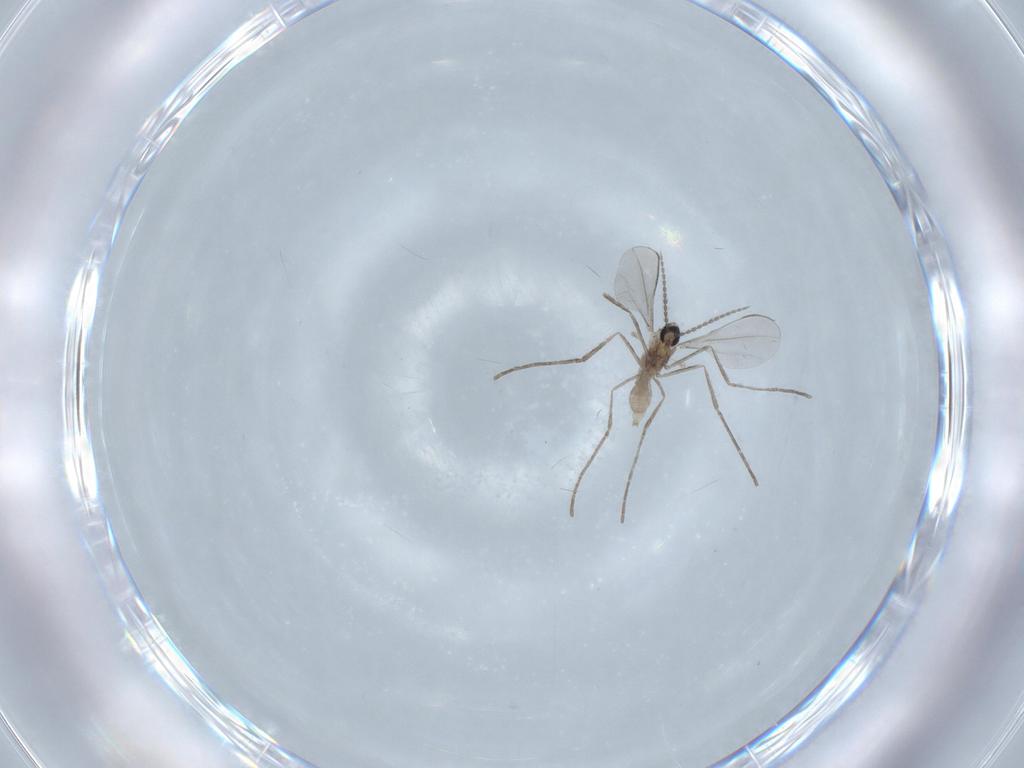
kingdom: Animalia
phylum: Arthropoda
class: Insecta
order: Diptera
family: Cecidomyiidae
